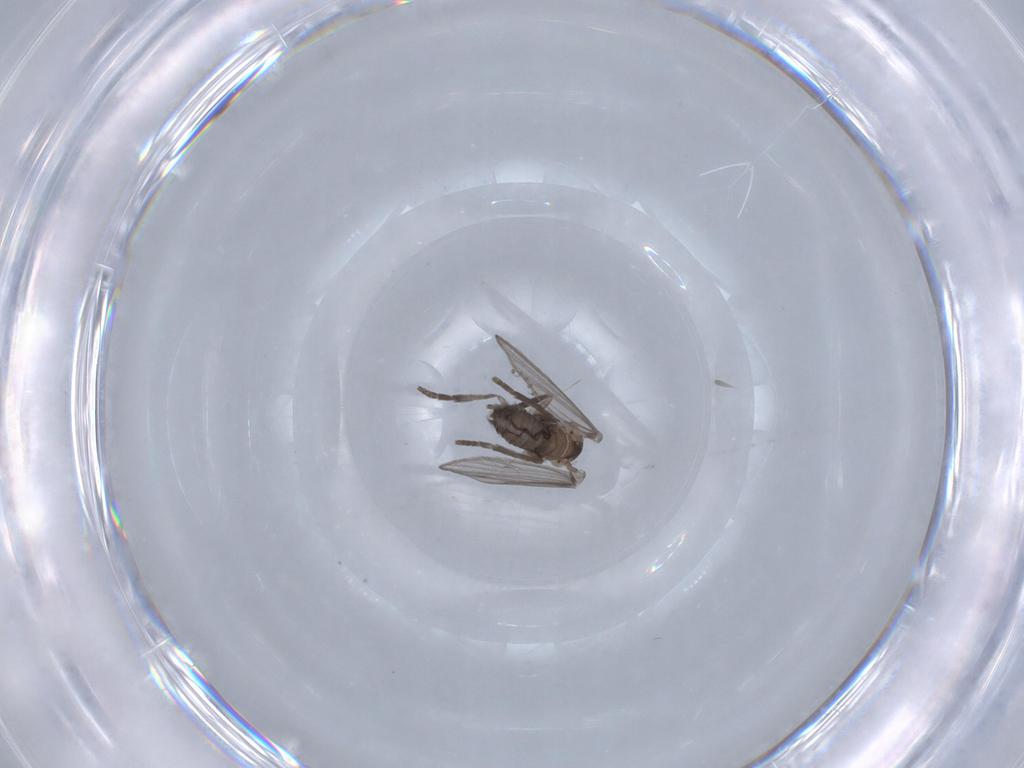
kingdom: Animalia
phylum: Arthropoda
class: Insecta
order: Diptera
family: Psychodidae
